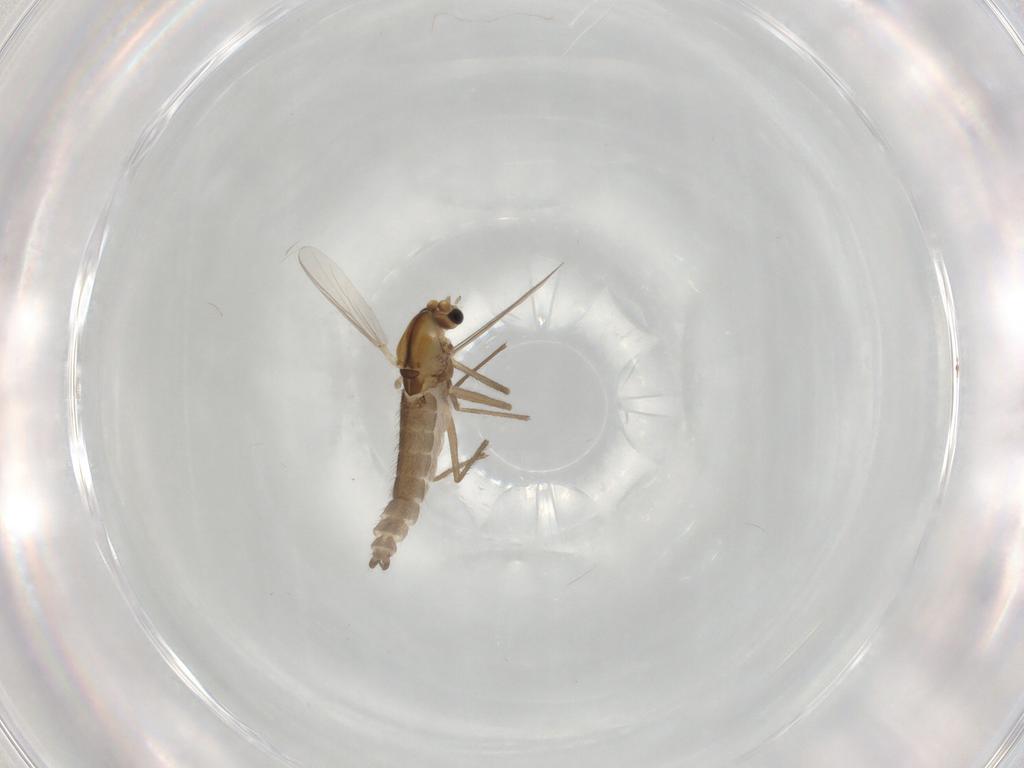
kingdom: Animalia
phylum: Arthropoda
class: Insecta
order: Diptera
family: Chironomidae
